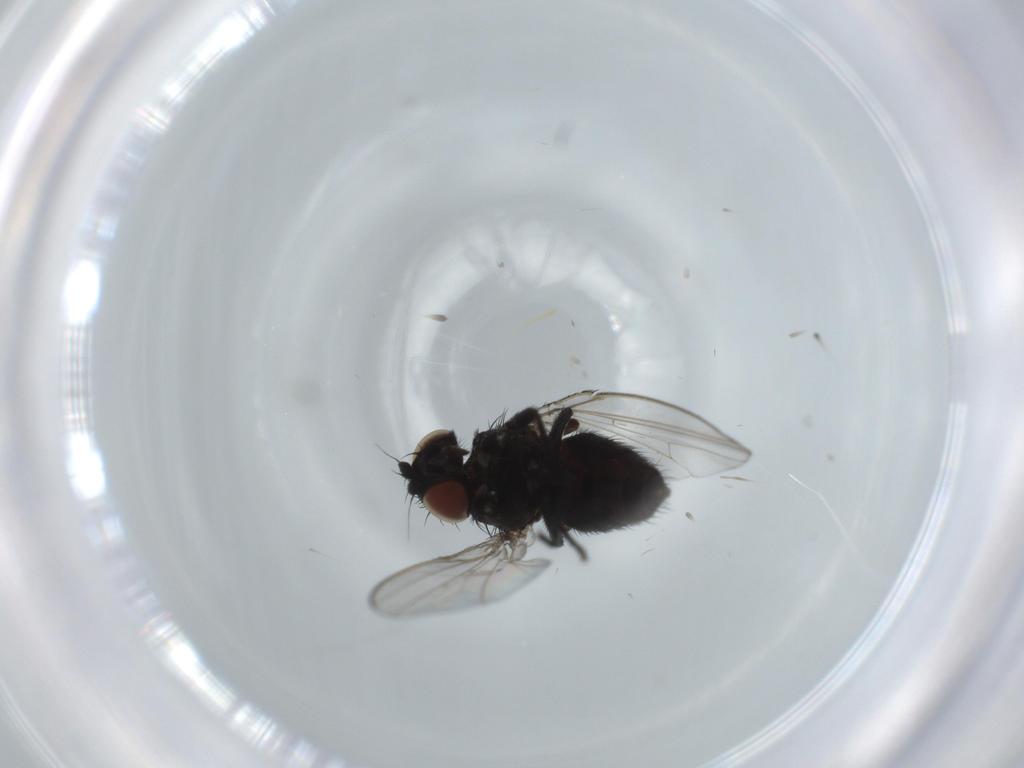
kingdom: Animalia
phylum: Arthropoda
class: Insecta
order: Diptera
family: Milichiidae
